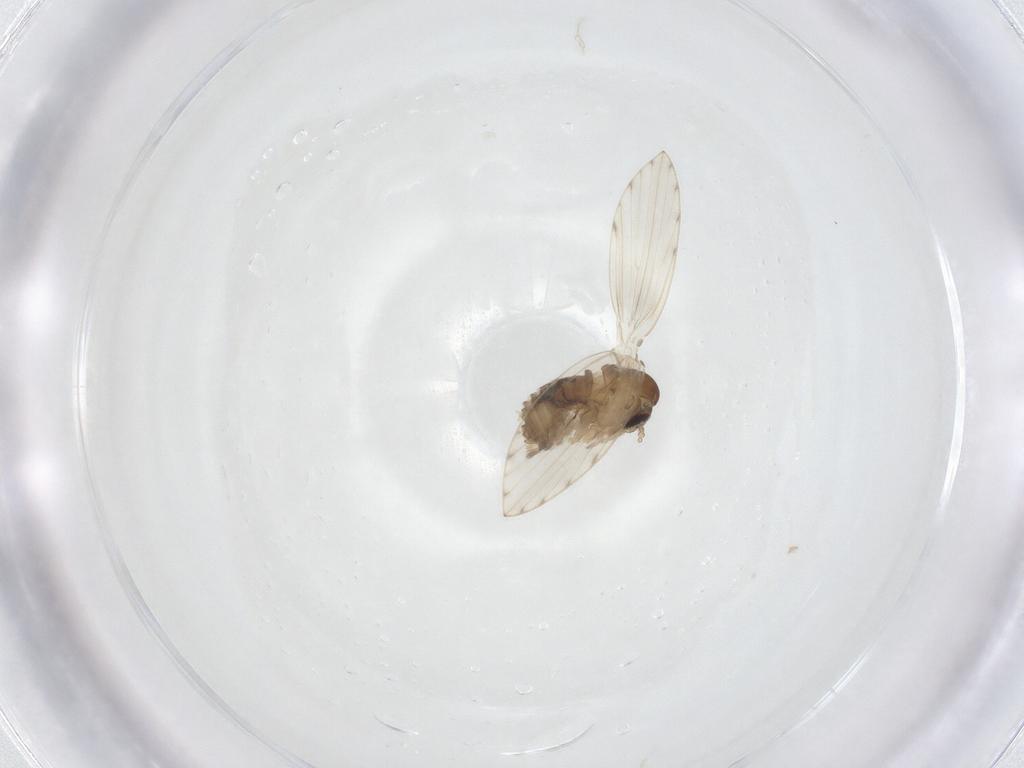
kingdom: Animalia
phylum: Arthropoda
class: Insecta
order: Diptera
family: Psychodidae
